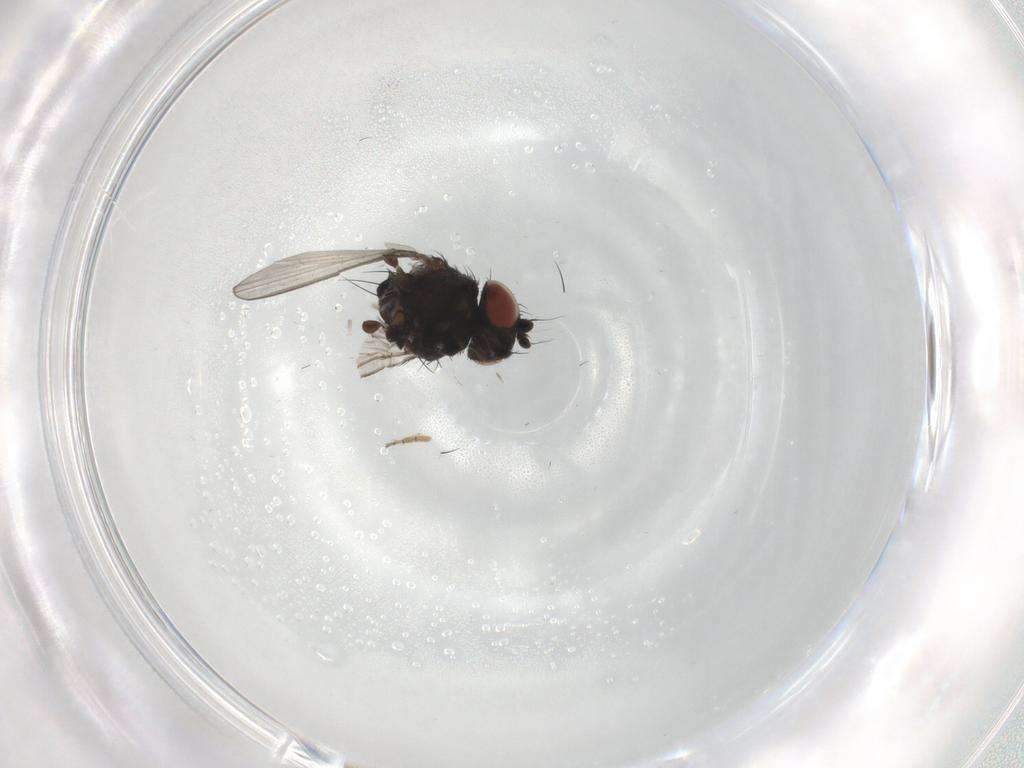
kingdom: Animalia
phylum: Arthropoda
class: Insecta
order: Diptera
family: Milichiidae
